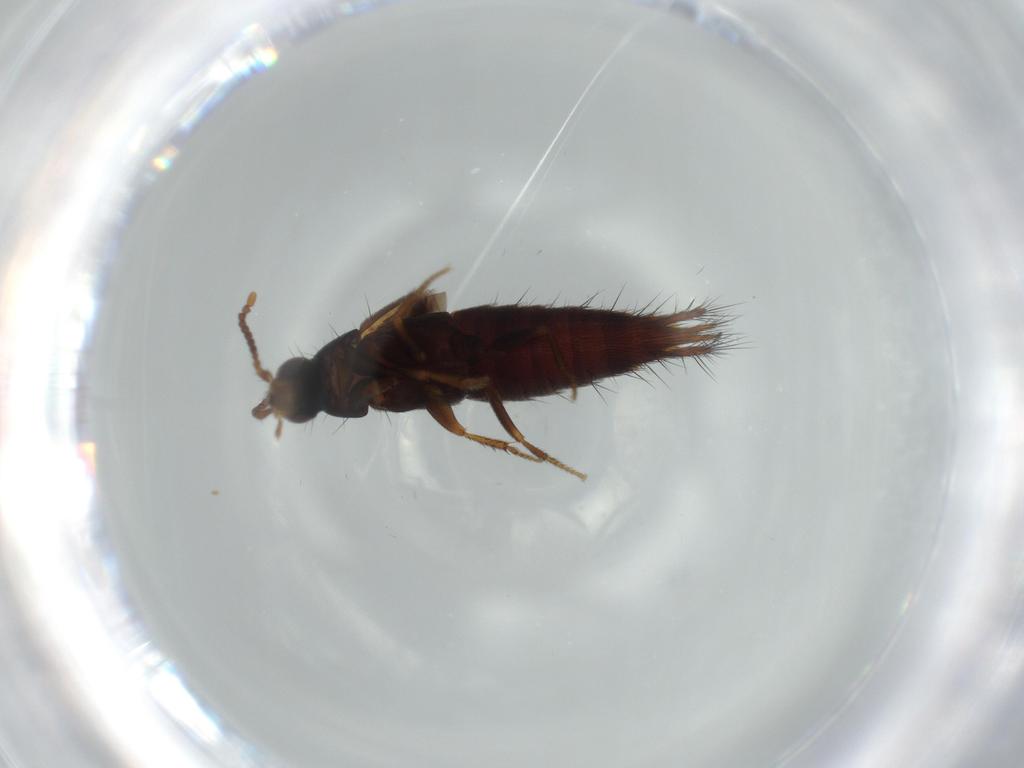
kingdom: Animalia
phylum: Arthropoda
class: Insecta
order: Coleoptera
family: Staphylinidae
